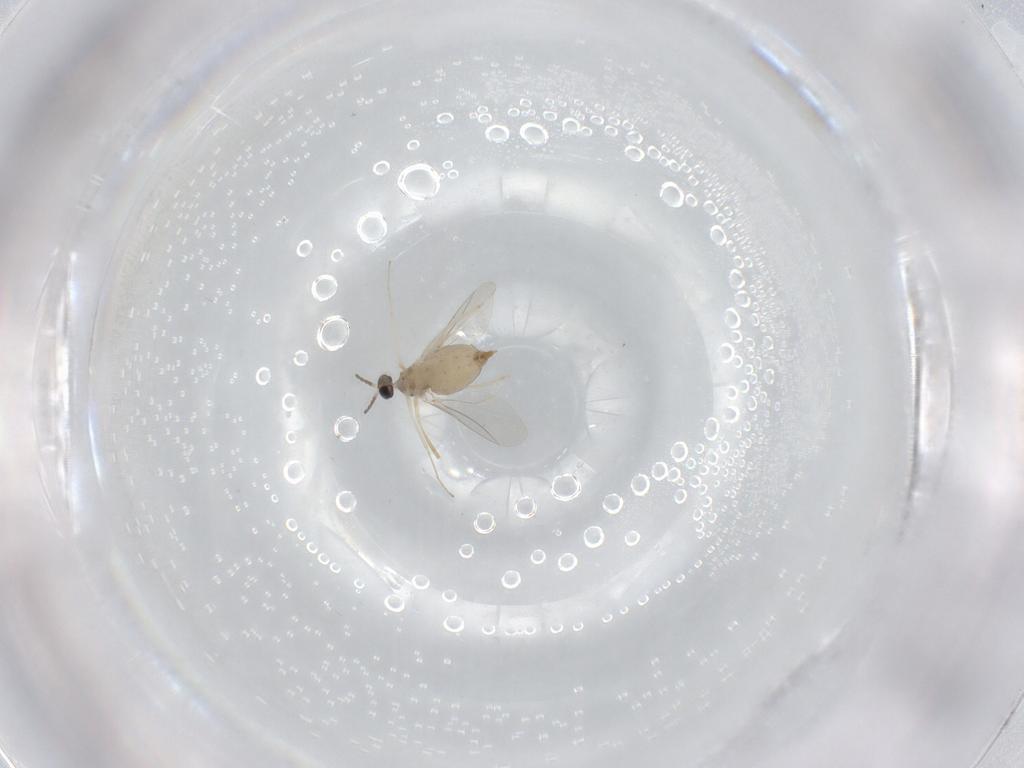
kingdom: Animalia
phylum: Arthropoda
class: Insecta
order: Diptera
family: Cecidomyiidae
